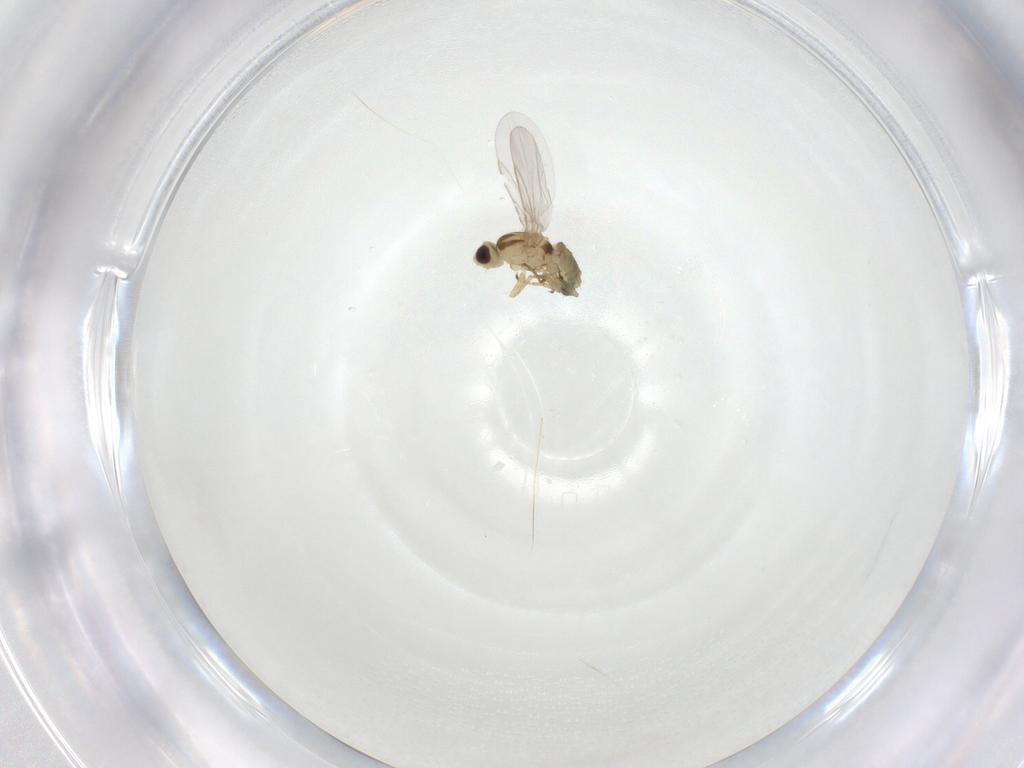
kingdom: Animalia
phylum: Arthropoda
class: Insecta
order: Diptera
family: Agromyzidae
